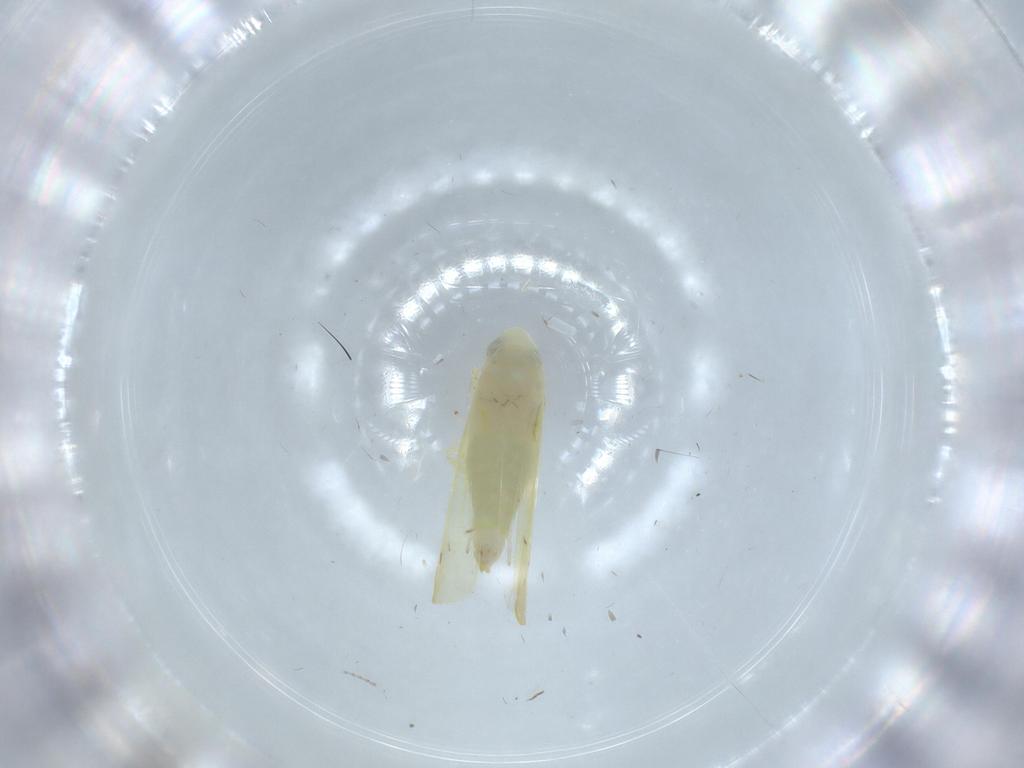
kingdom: Animalia
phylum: Arthropoda
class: Insecta
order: Hemiptera
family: Cicadellidae
